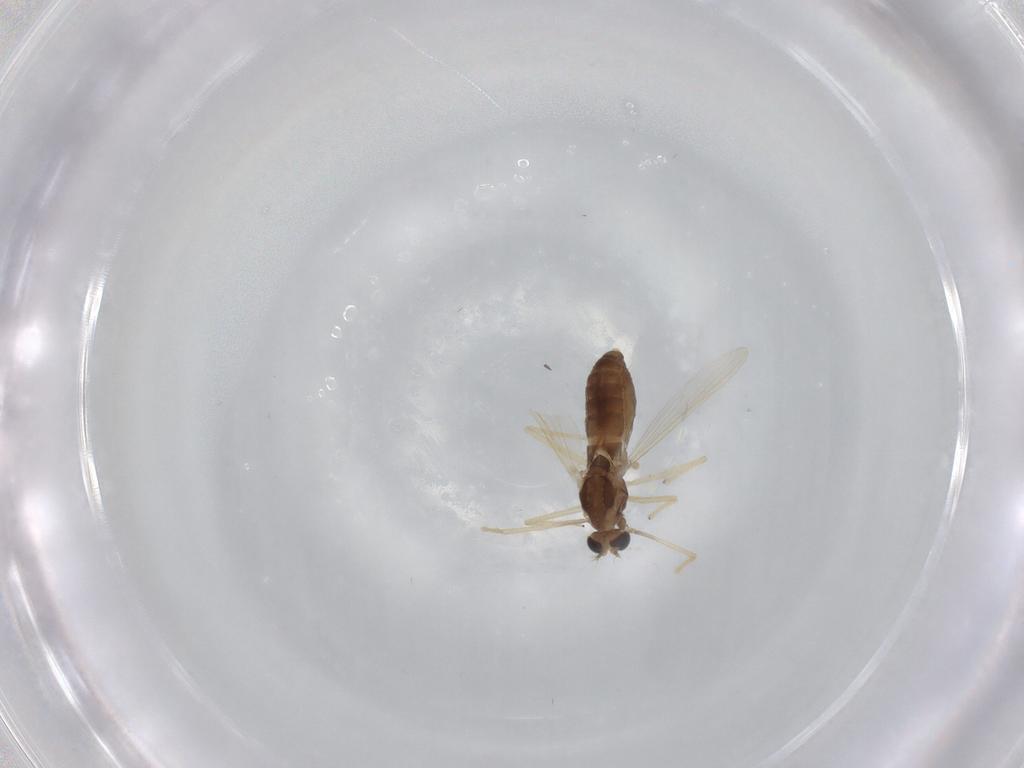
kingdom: Animalia
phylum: Arthropoda
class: Insecta
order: Diptera
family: Chironomidae
